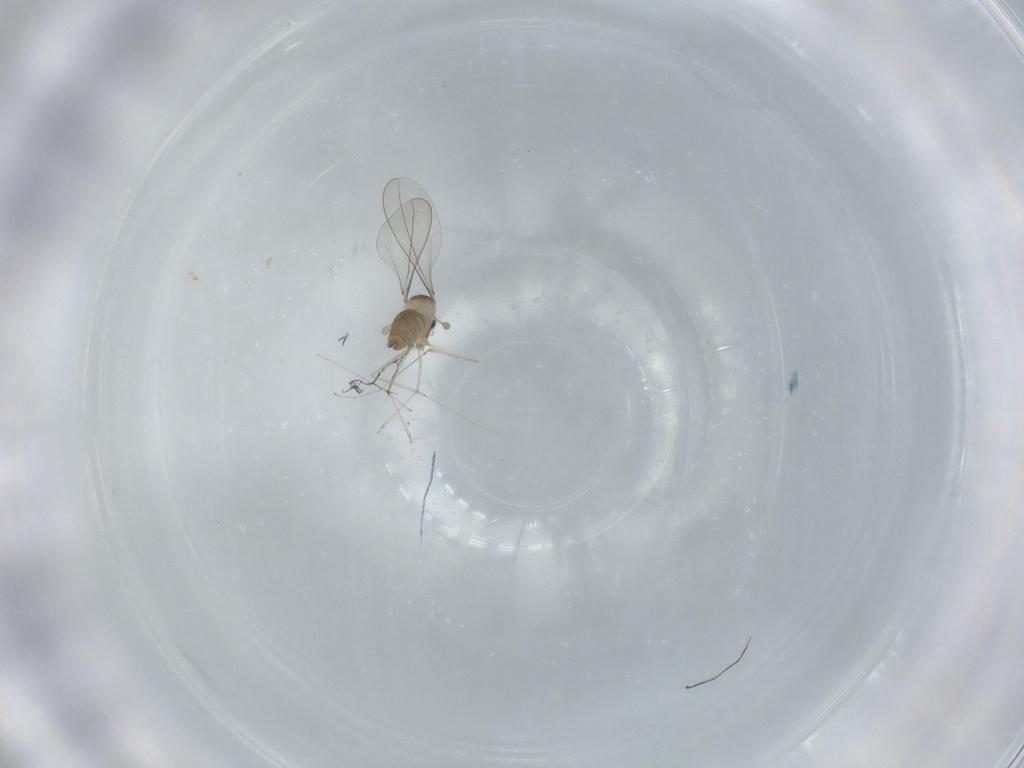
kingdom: Animalia
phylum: Arthropoda
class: Insecta
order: Diptera
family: Cecidomyiidae
